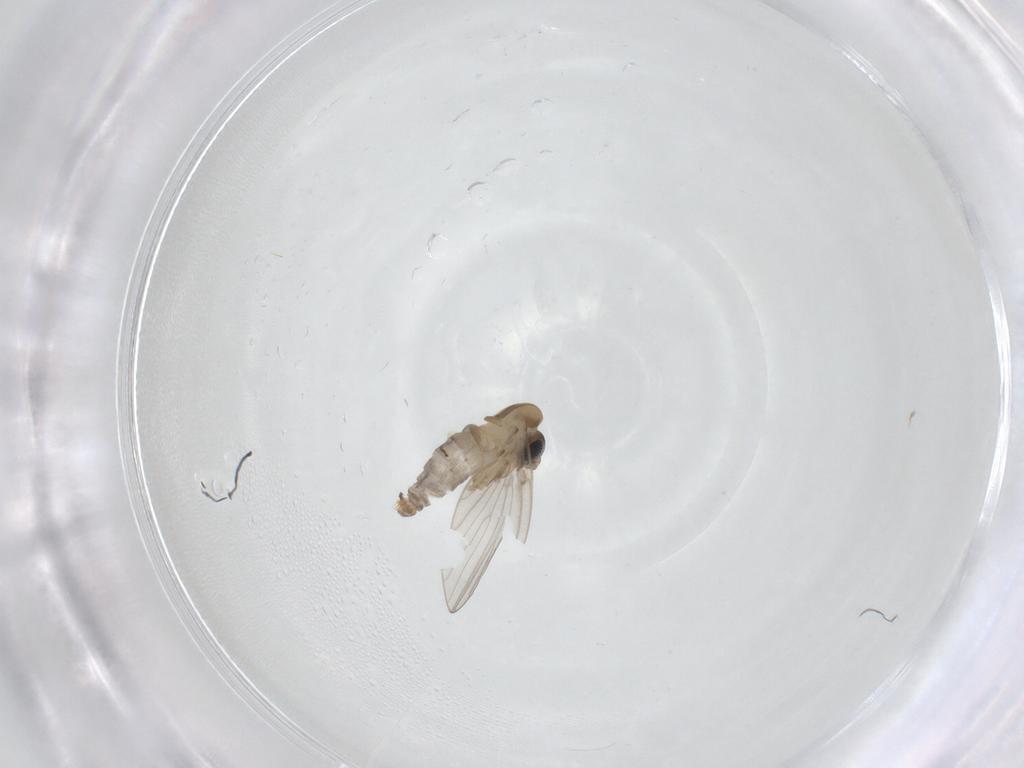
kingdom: Animalia
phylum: Arthropoda
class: Insecta
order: Diptera
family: Psychodidae
